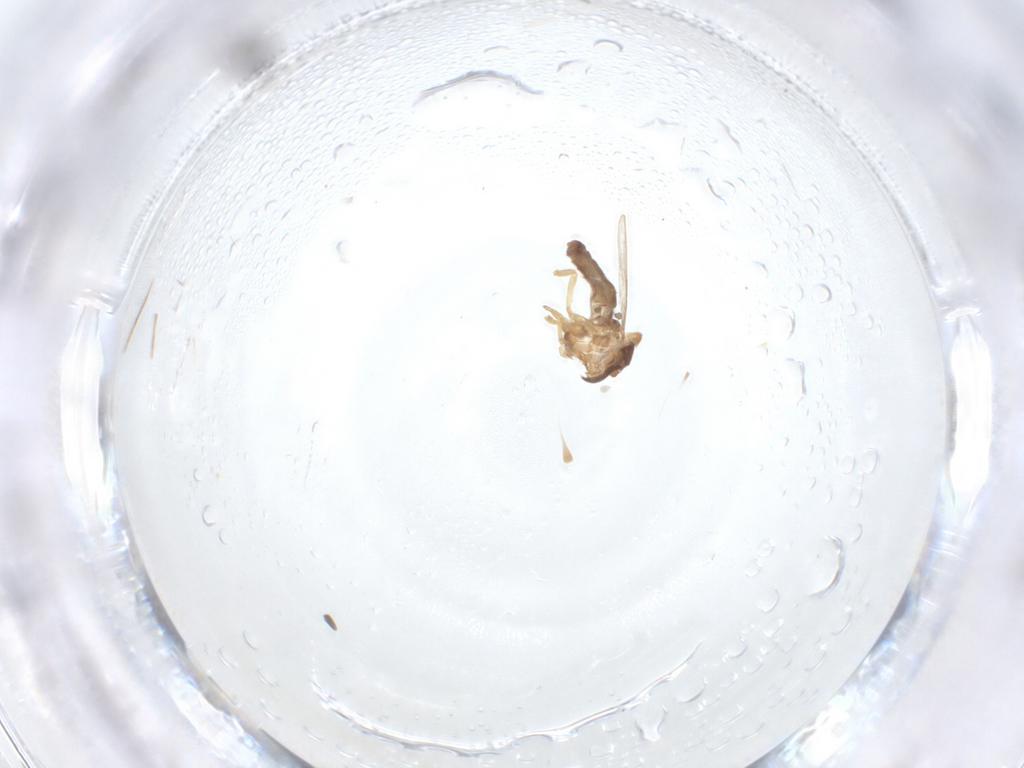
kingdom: Animalia
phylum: Arthropoda
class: Insecta
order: Diptera
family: Ceratopogonidae
